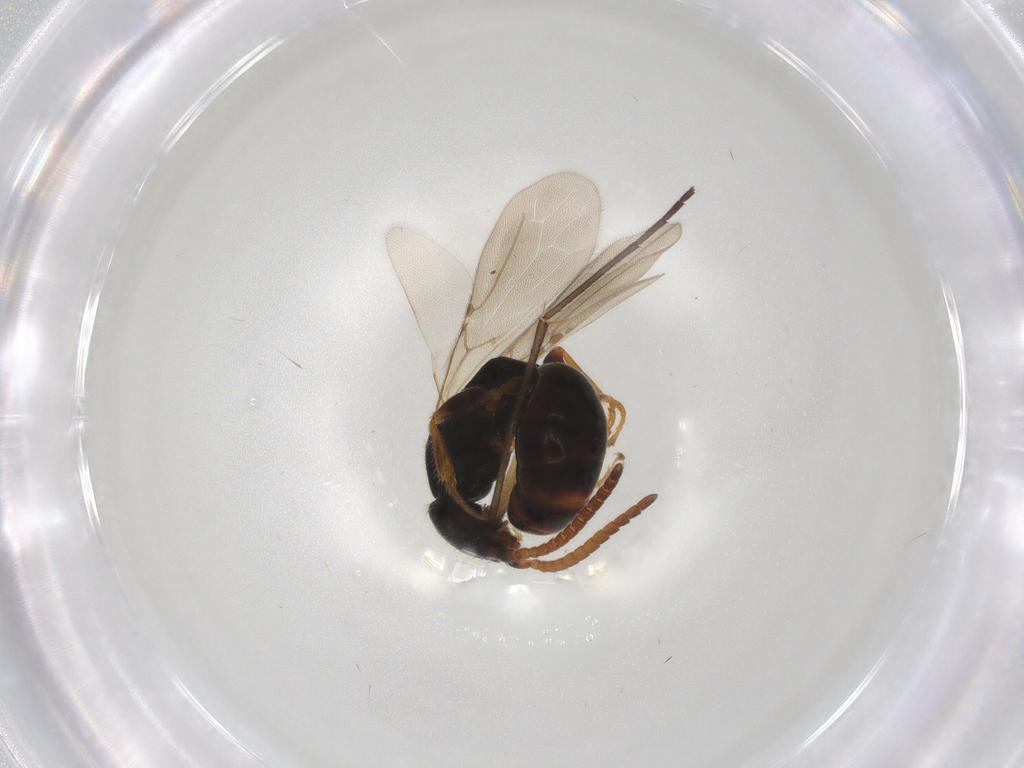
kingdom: Animalia
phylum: Arthropoda
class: Insecta
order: Hymenoptera
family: Bethylidae
